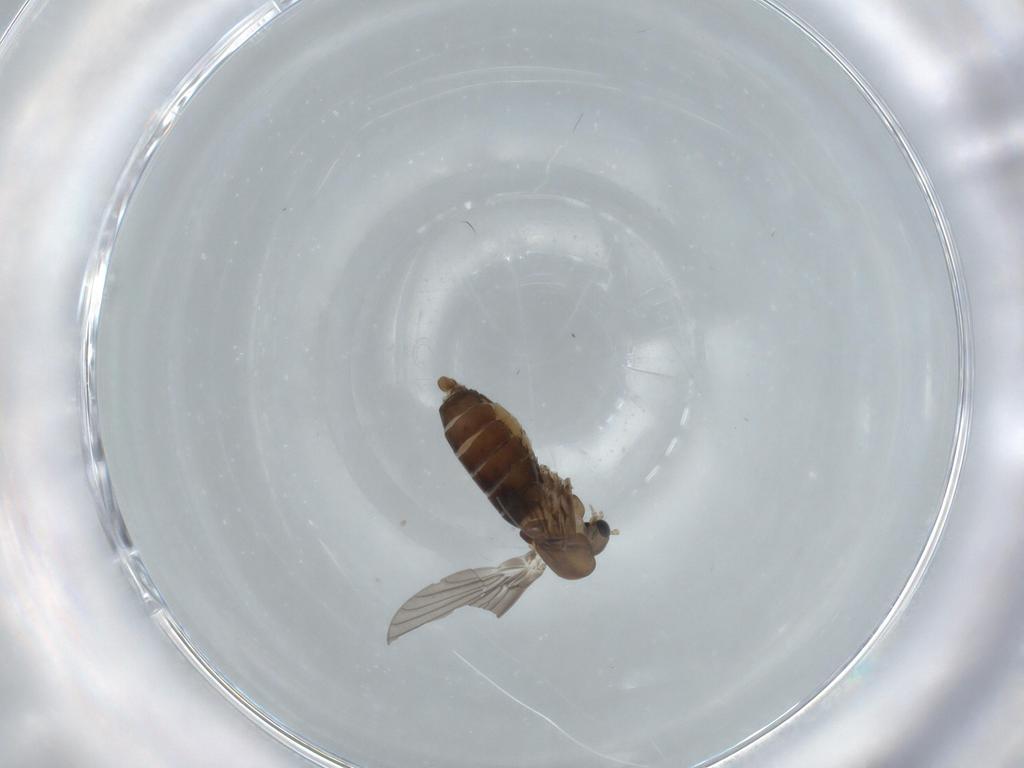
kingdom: Animalia
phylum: Arthropoda
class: Insecta
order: Diptera
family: Psychodidae
